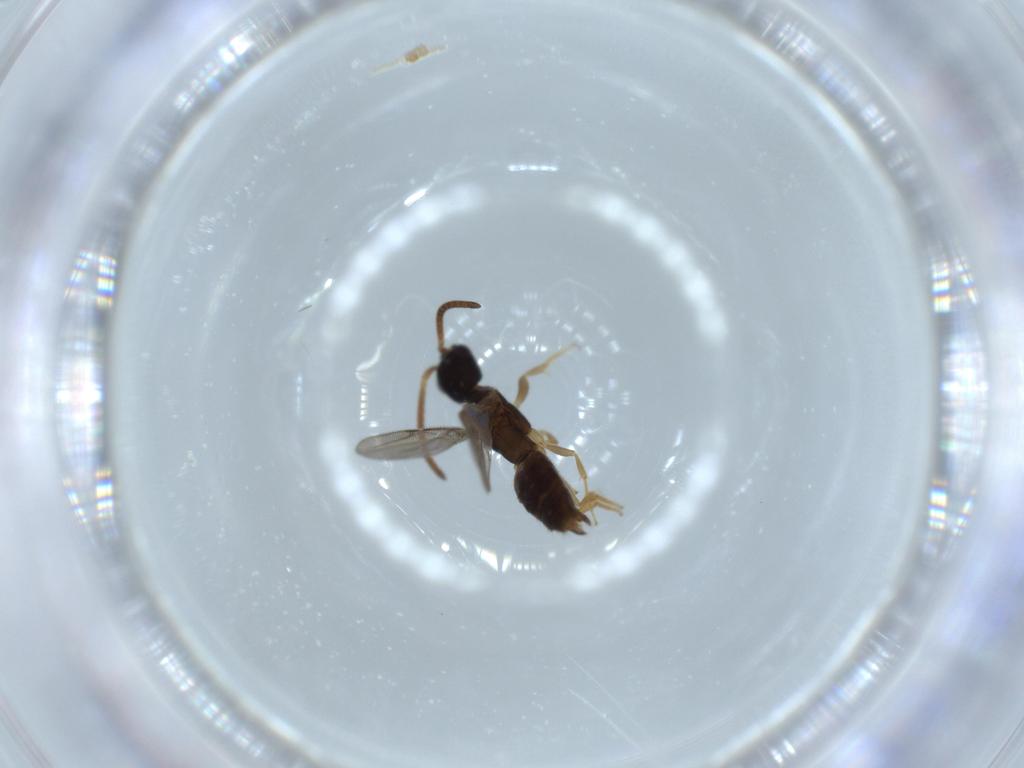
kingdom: Animalia
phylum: Arthropoda
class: Insecta
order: Hymenoptera
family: Bethylidae
